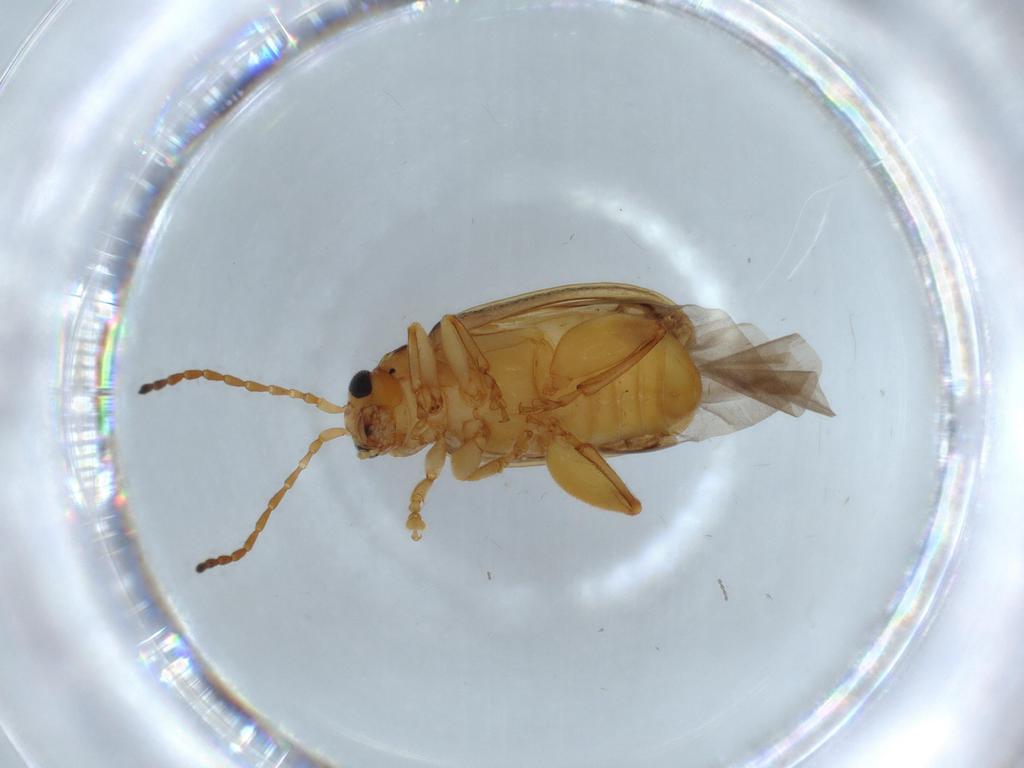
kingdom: Animalia
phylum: Arthropoda
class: Insecta
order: Coleoptera
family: Chrysomelidae
